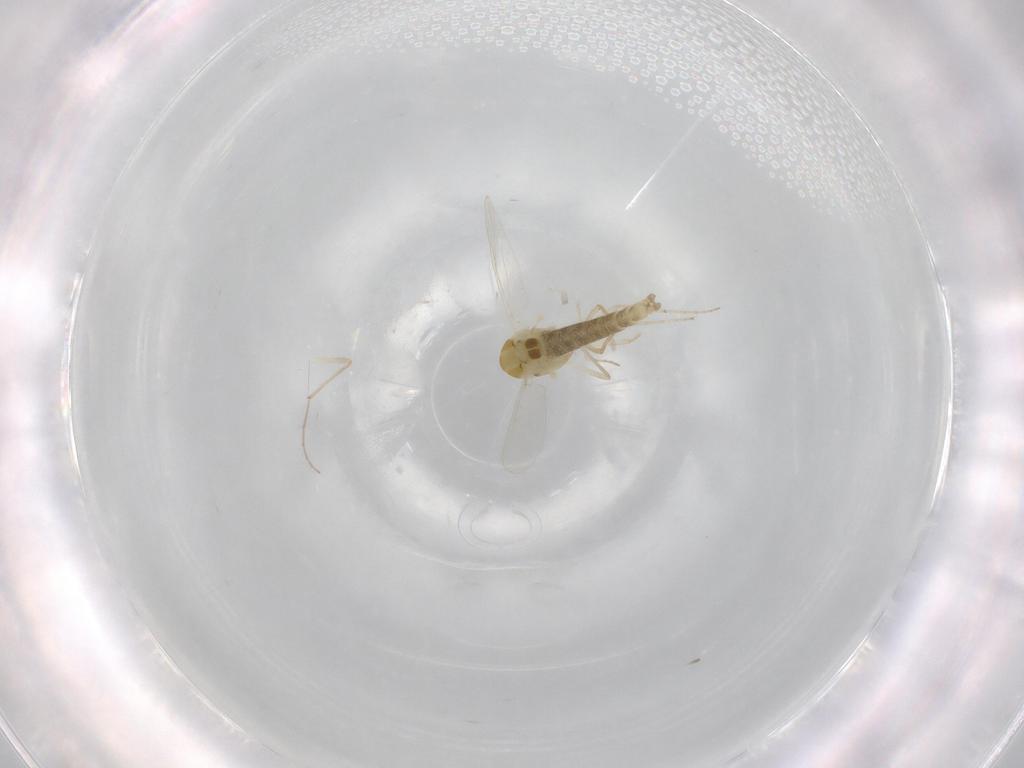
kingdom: Animalia
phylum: Arthropoda
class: Insecta
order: Diptera
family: Chironomidae
